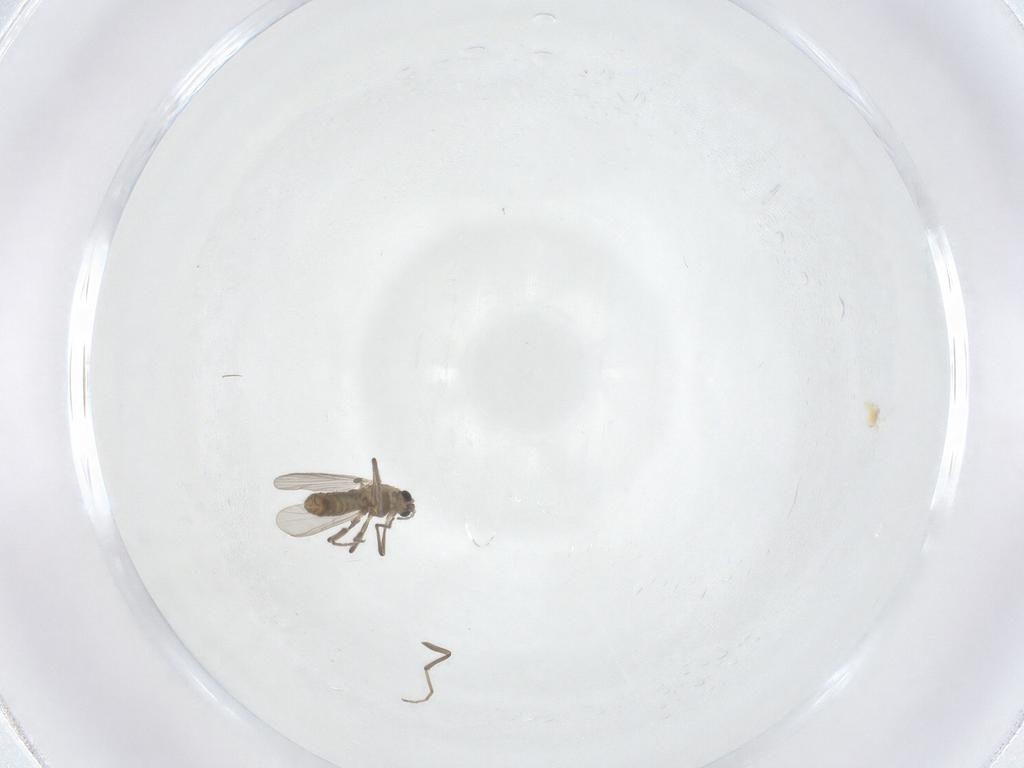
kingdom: Animalia
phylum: Arthropoda
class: Insecta
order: Diptera
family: Chironomidae
